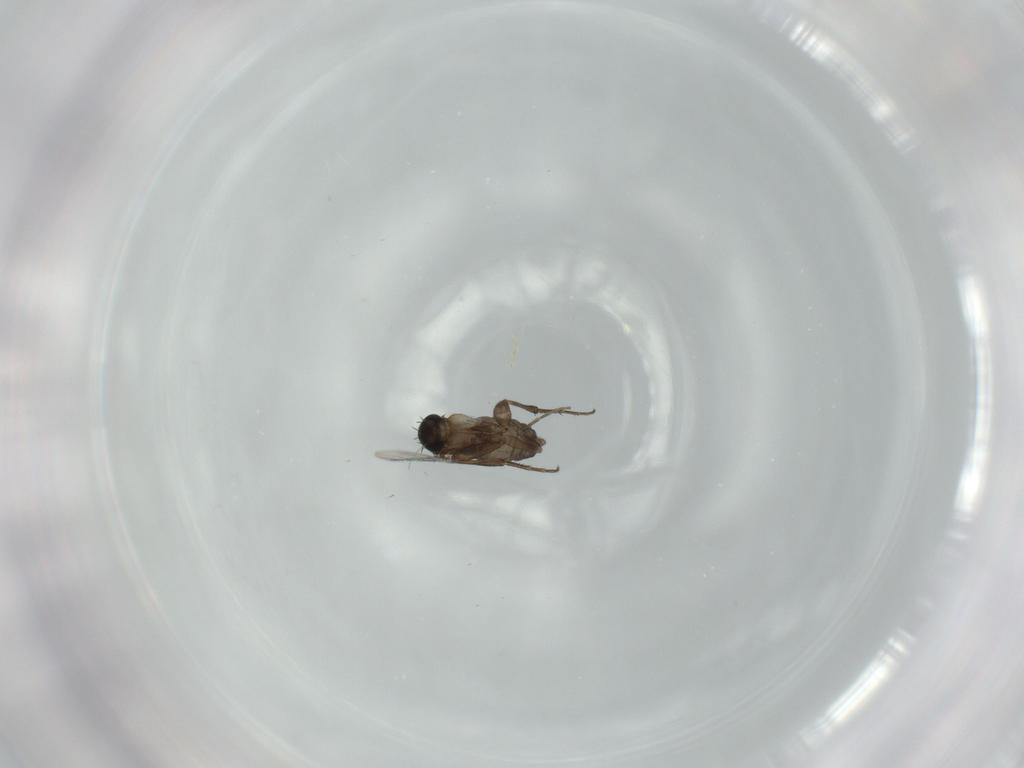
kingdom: Animalia
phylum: Arthropoda
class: Insecta
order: Diptera
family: Phoridae
